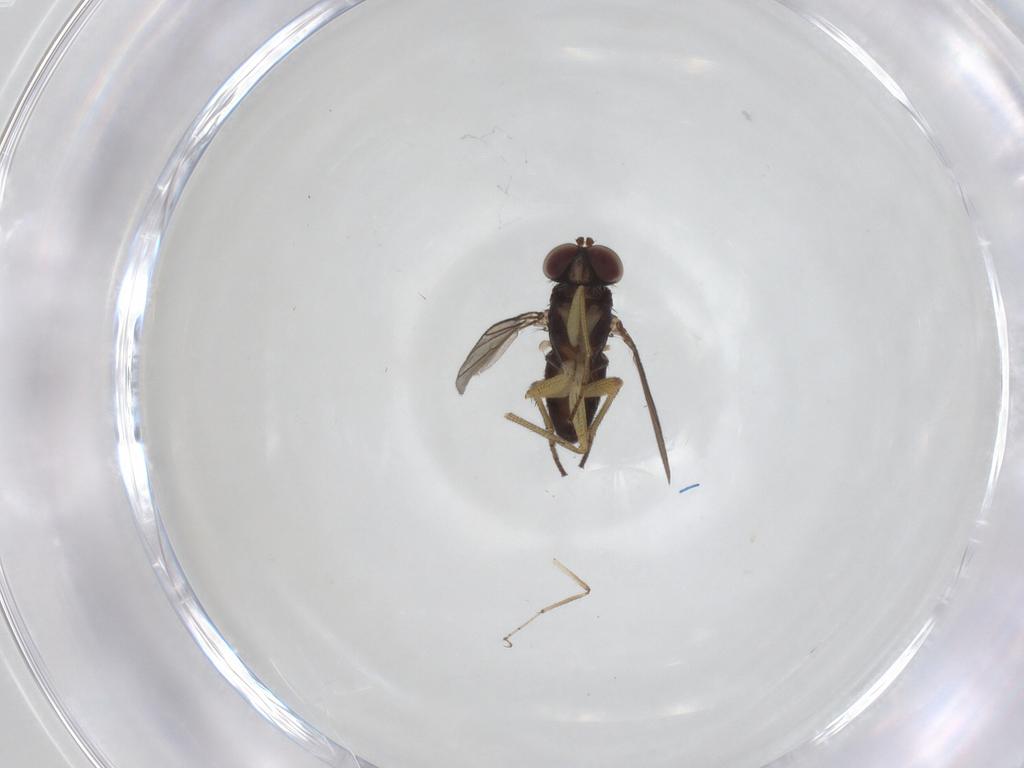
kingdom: Animalia
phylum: Arthropoda
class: Insecta
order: Diptera
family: Dolichopodidae
